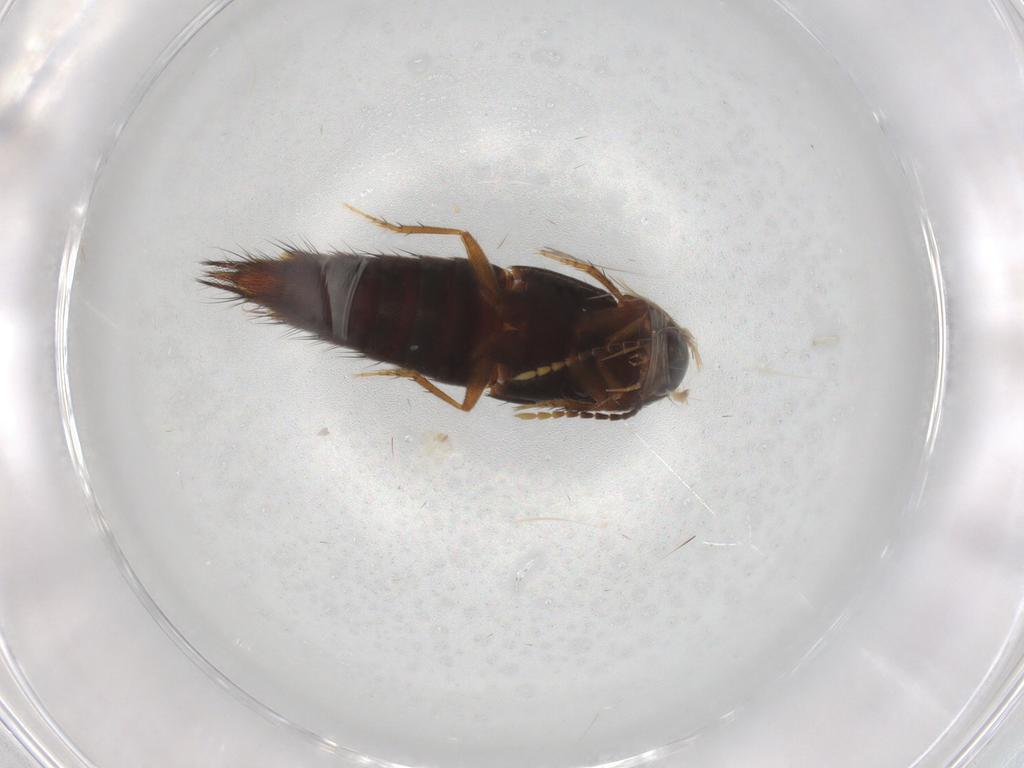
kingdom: Animalia
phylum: Arthropoda
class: Insecta
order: Coleoptera
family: Staphylinidae
